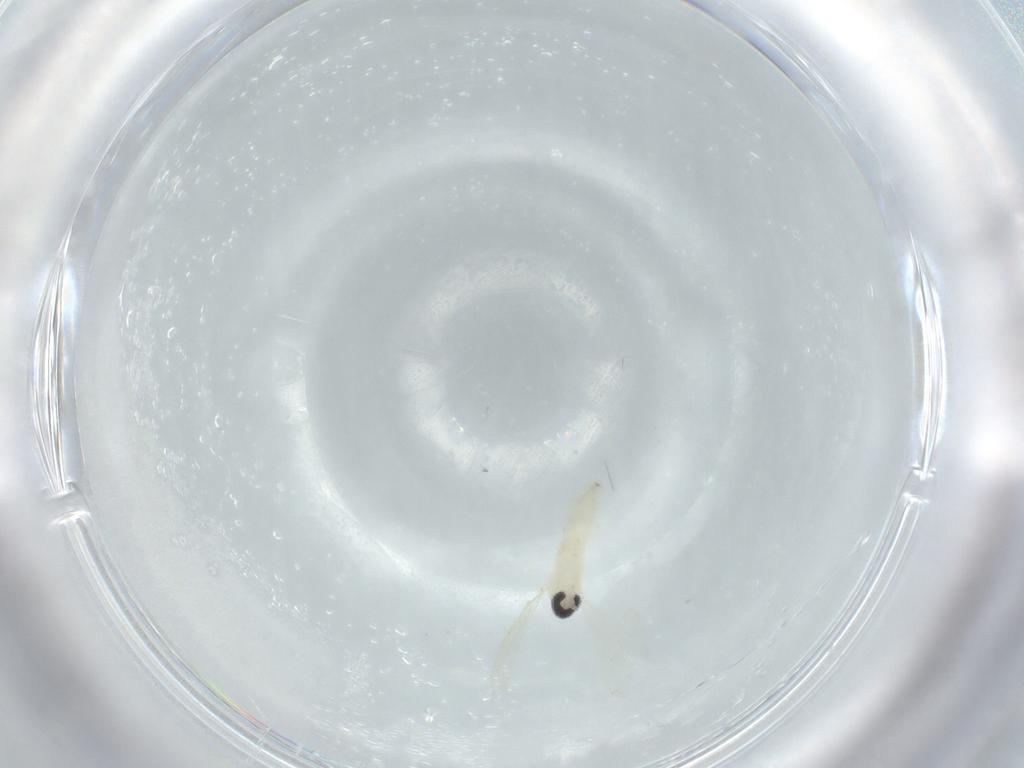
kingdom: Animalia
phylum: Arthropoda
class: Insecta
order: Diptera
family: Cecidomyiidae
